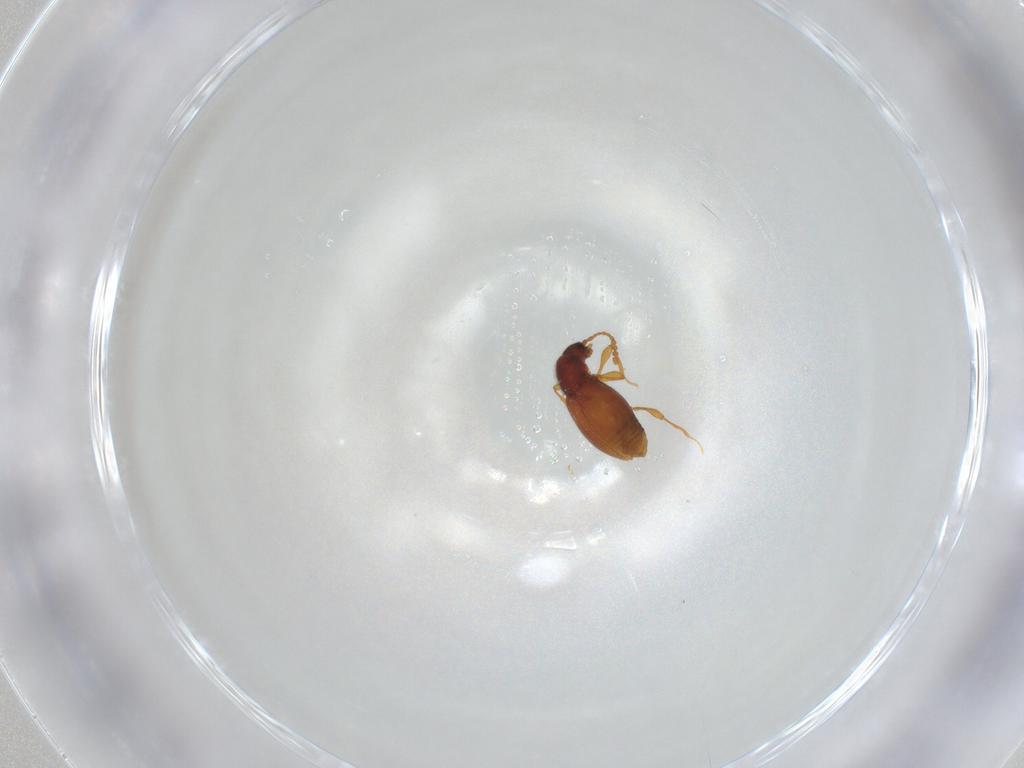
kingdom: Animalia
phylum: Arthropoda
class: Insecta
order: Coleoptera
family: Staphylinidae
